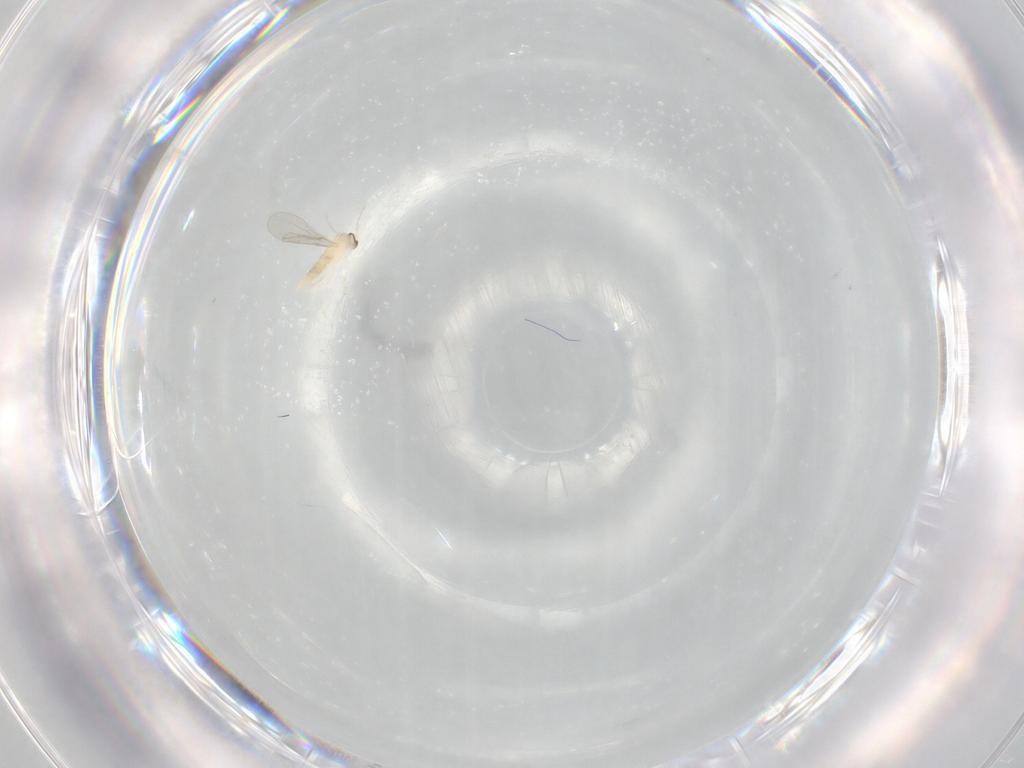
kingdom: Animalia
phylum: Arthropoda
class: Insecta
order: Diptera
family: Cecidomyiidae
